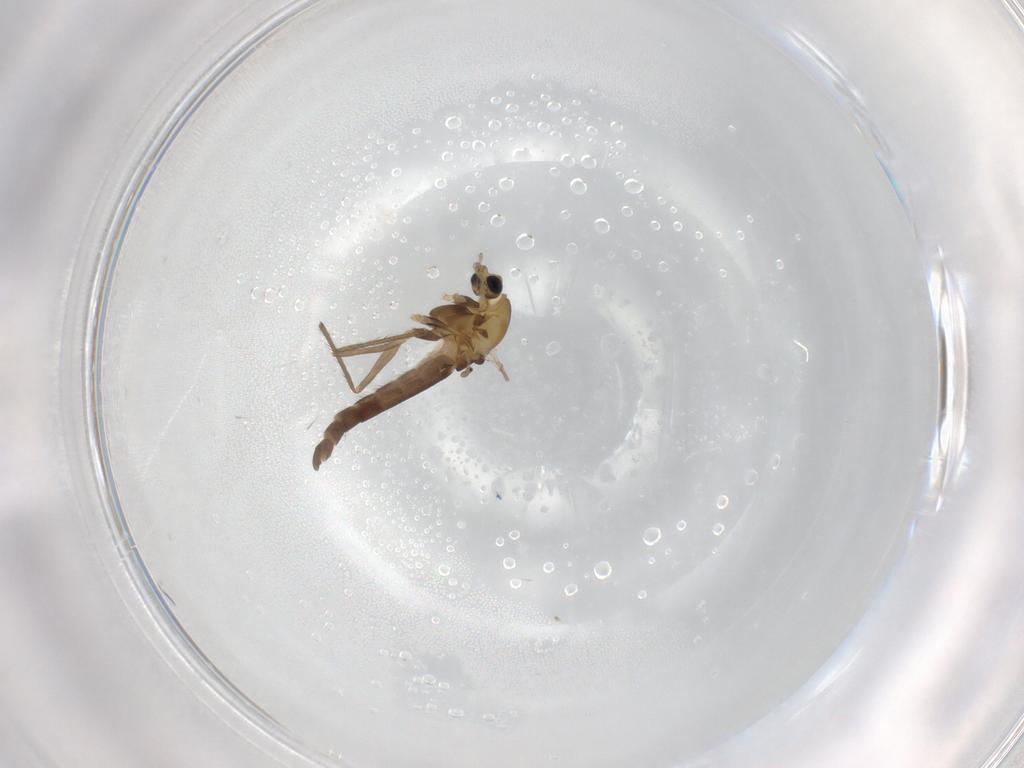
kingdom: Animalia
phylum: Arthropoda
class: Insecta
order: Diptera
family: Chironomidae
